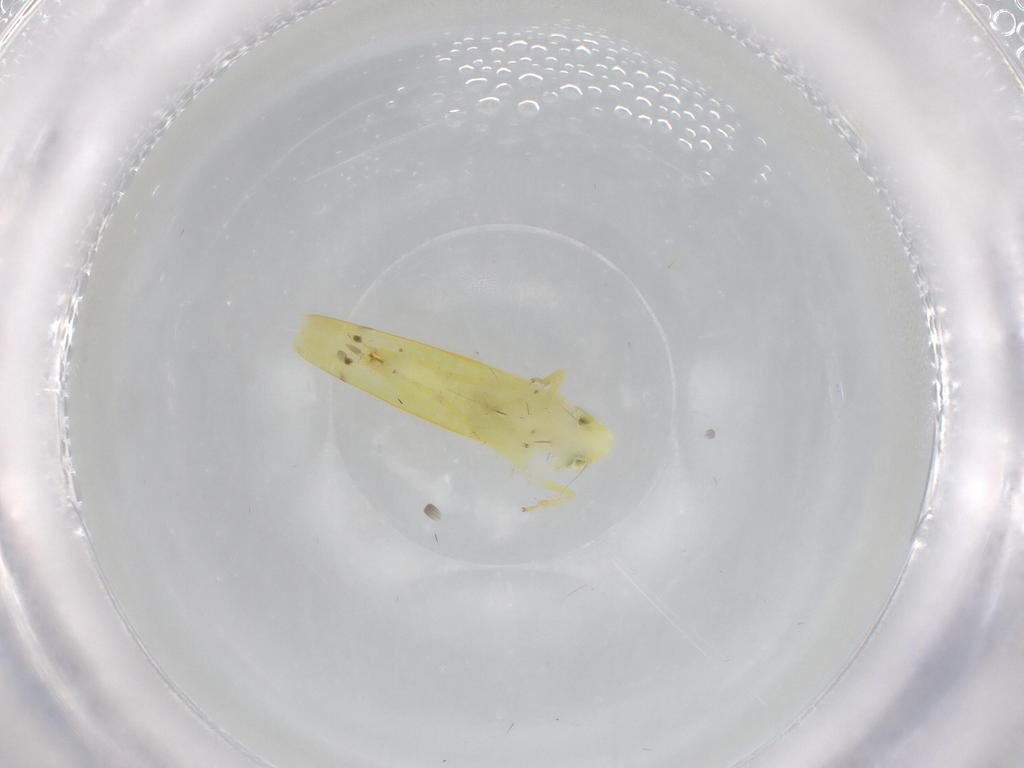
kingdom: Animalia
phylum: Arthropoda
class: Insecta
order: Hemiptera
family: Cicadellidae
